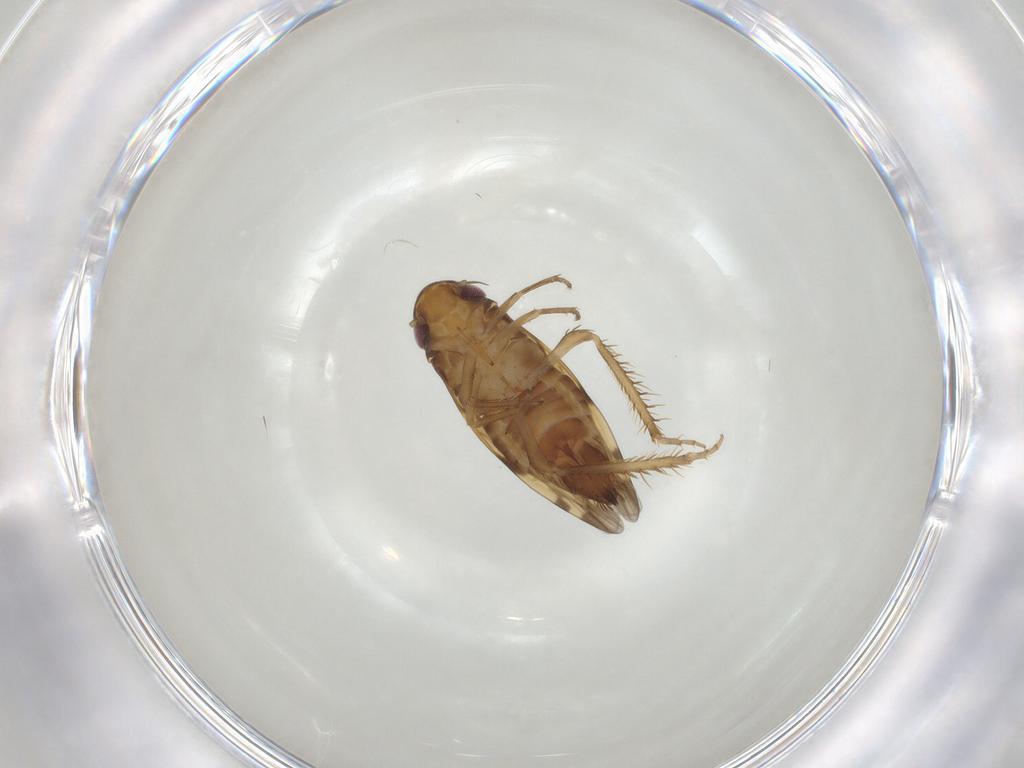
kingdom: Animalia
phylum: Arthropoda
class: Insecta
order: Hemiptera
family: Cicadellidae
